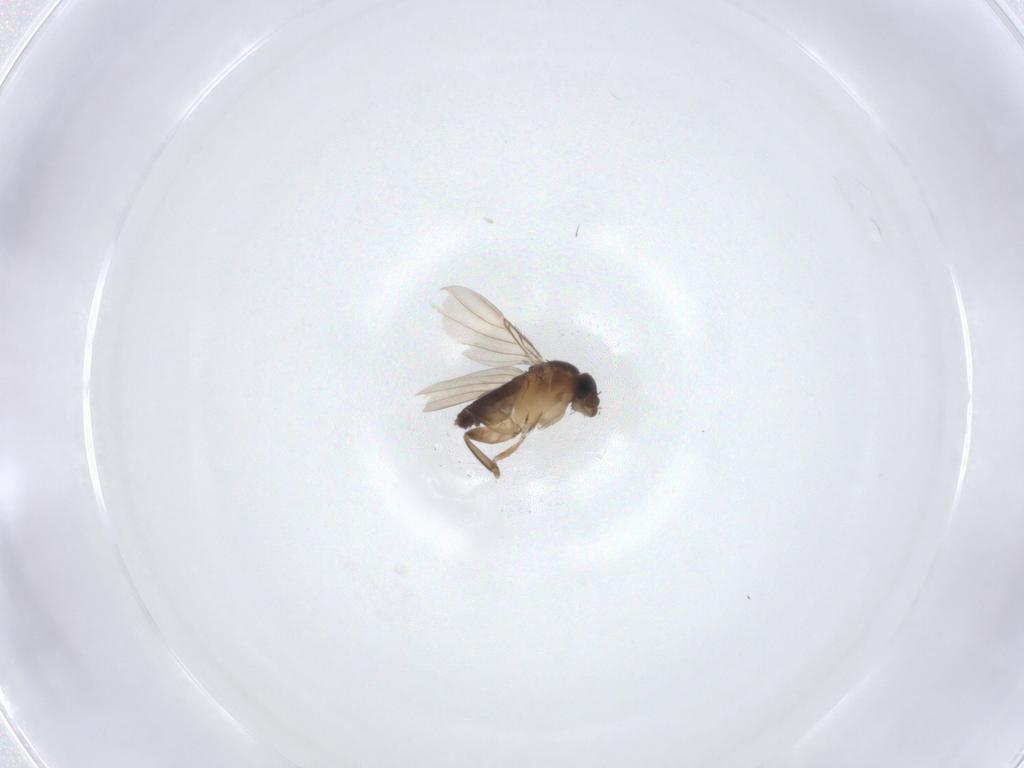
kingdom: Animalia
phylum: Arthropoda
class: Insecta
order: Diptera
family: Phoridae
